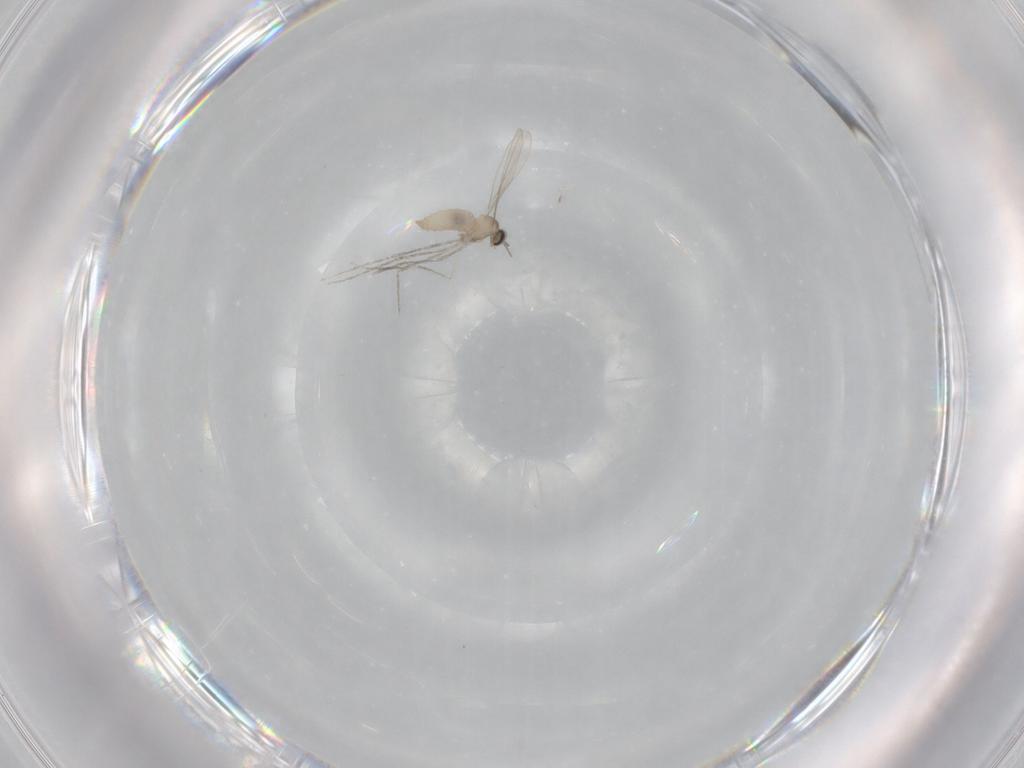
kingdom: Animalia
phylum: Arthropoda
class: Insecta
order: Diptera
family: Cecidomyiidae
